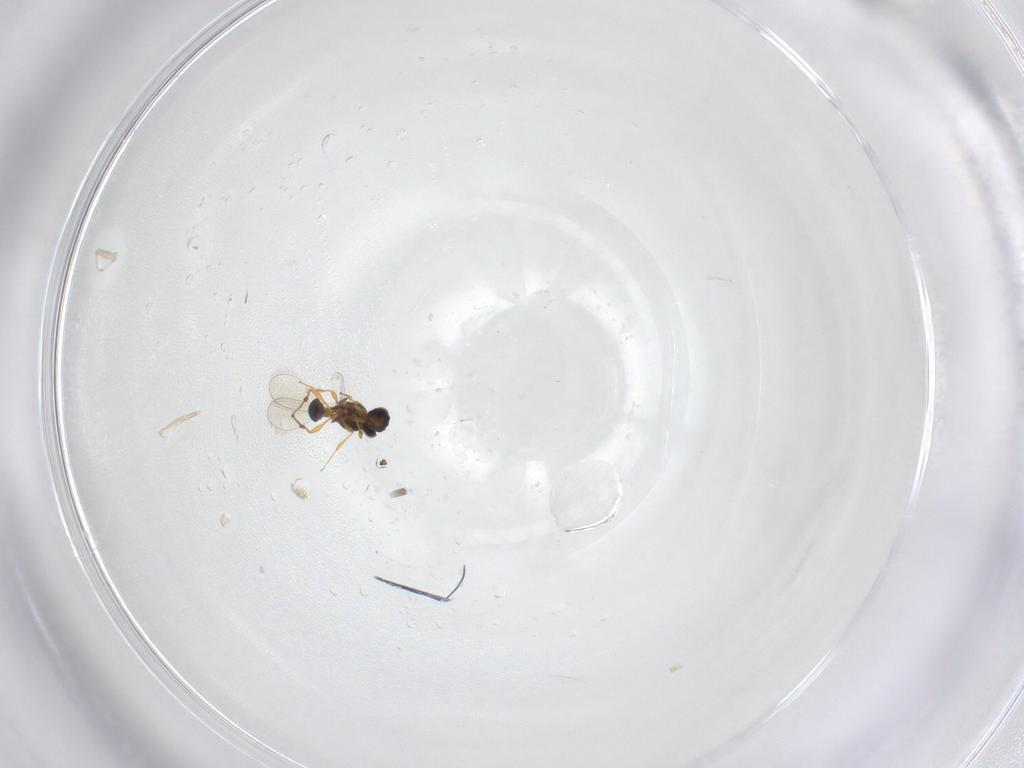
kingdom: Animalia
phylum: Arthropoda
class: Insecta
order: Hymenoptera
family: Platygastridae
